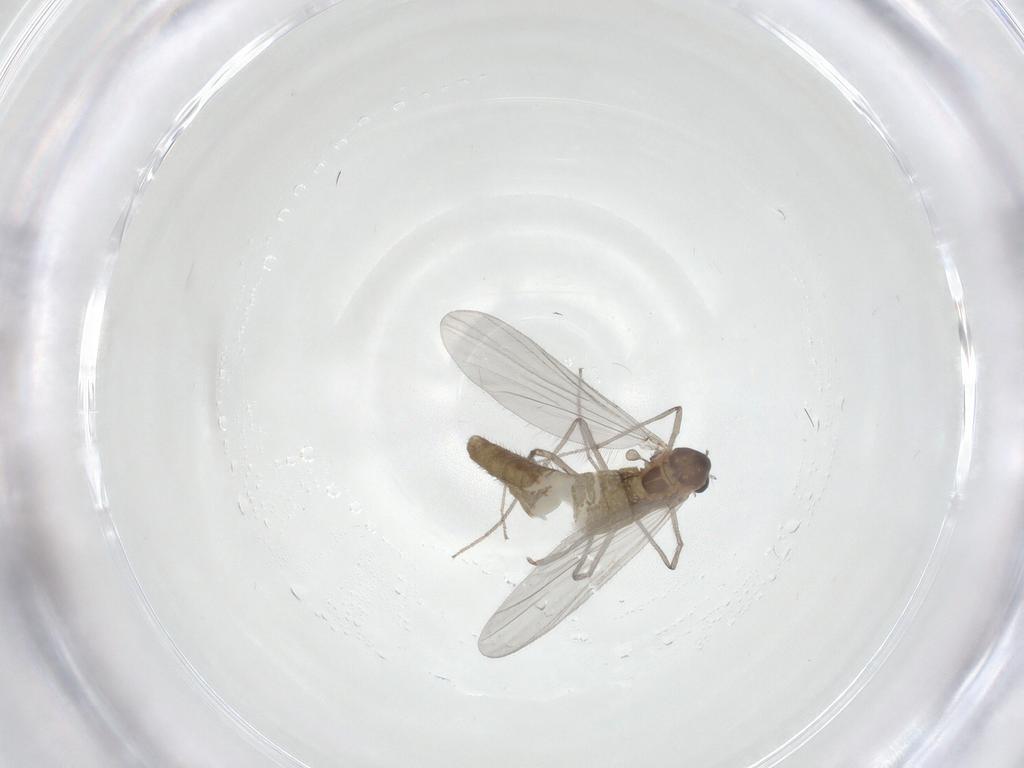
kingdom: Animalia
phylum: Arthropoda
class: Insecta
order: Diptera
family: Chironomidae
